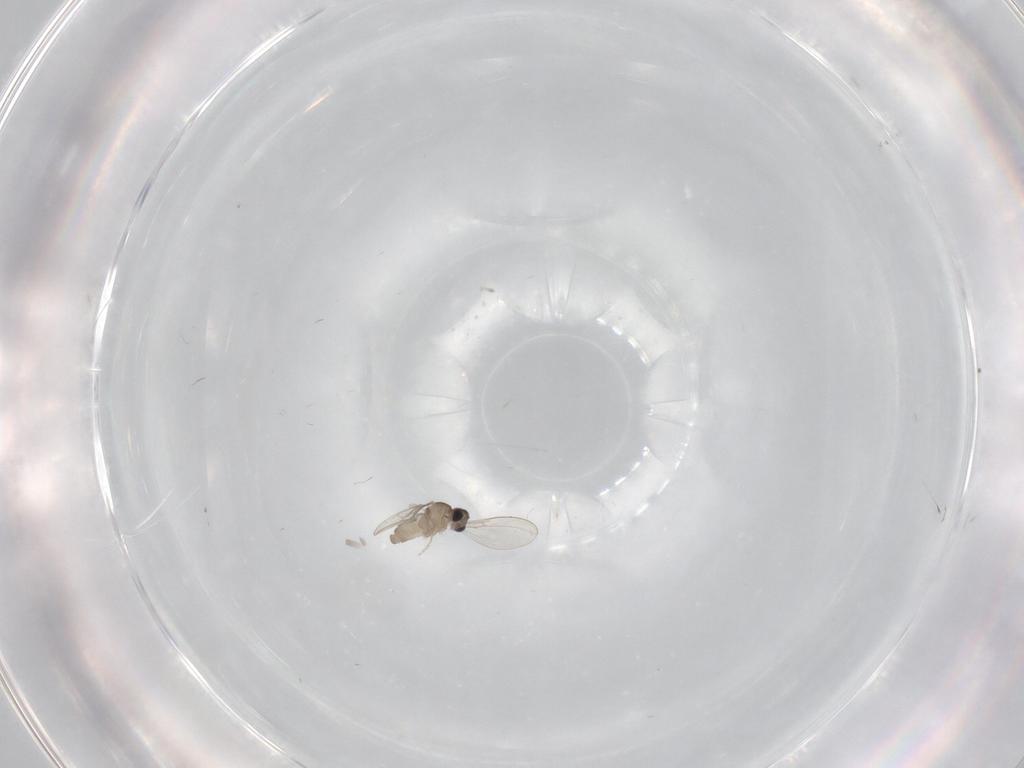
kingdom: Animalia
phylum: Arthropoda
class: Insecta
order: Diptera
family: Cecidomyiidae
